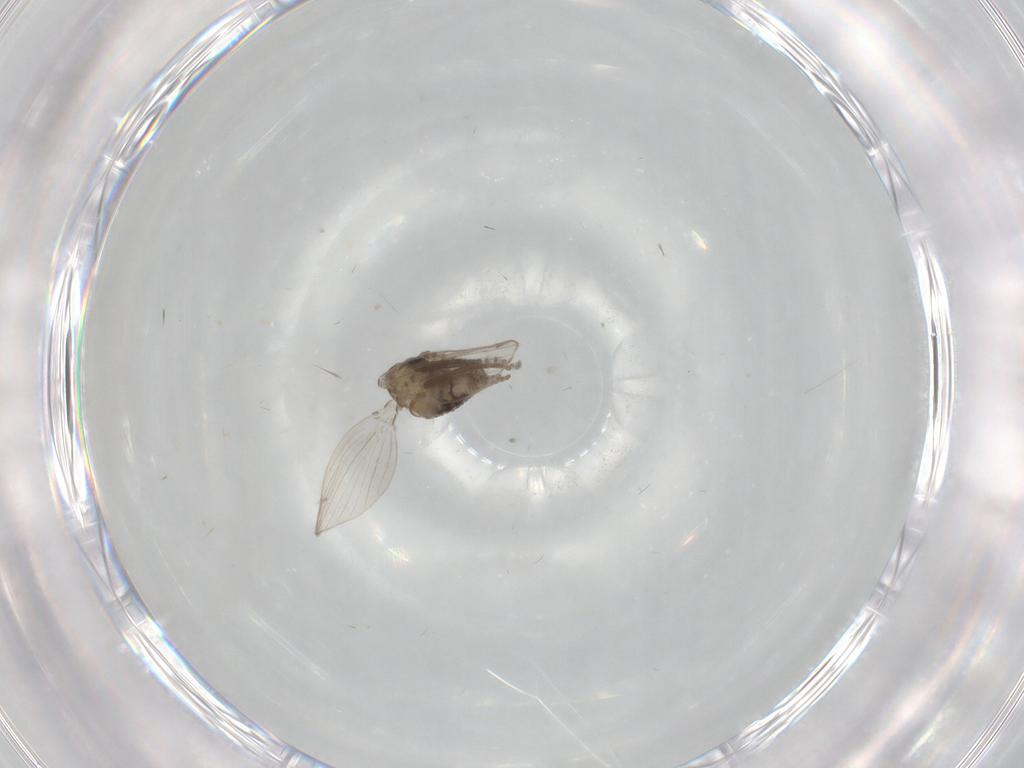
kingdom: Animalia
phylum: Arthropoda
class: Insecta
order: Diptera
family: Psychodidae
